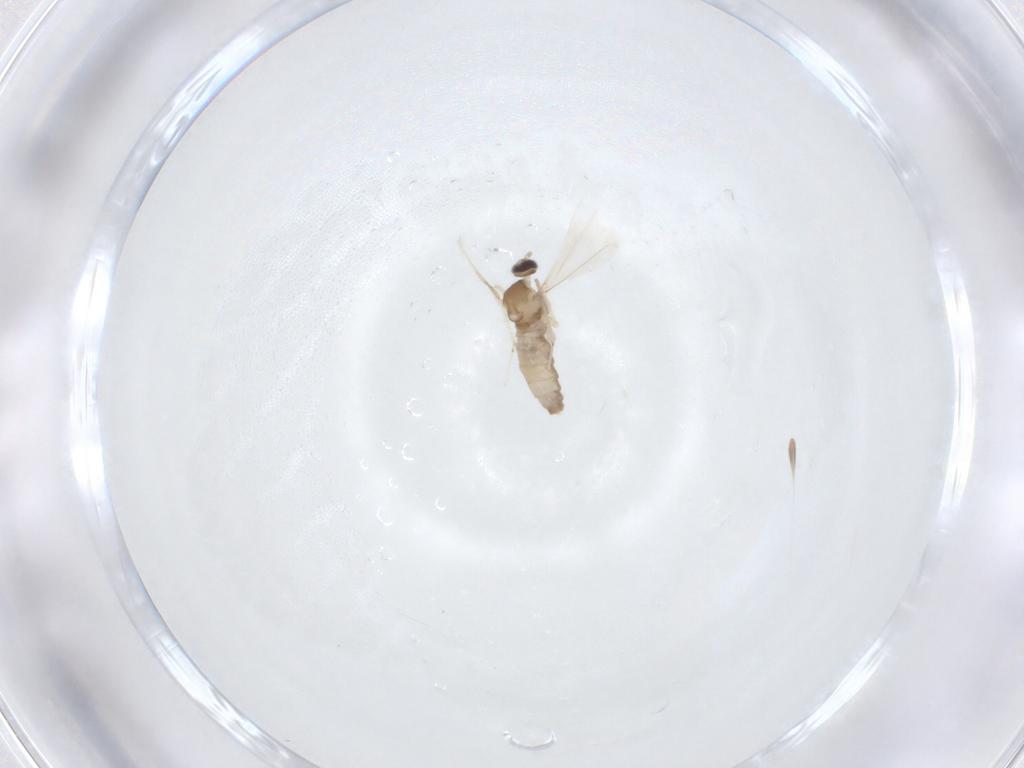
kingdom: Animalia
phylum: Arthropoda
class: Insecta
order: Diptera
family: Cecidomyiidae
